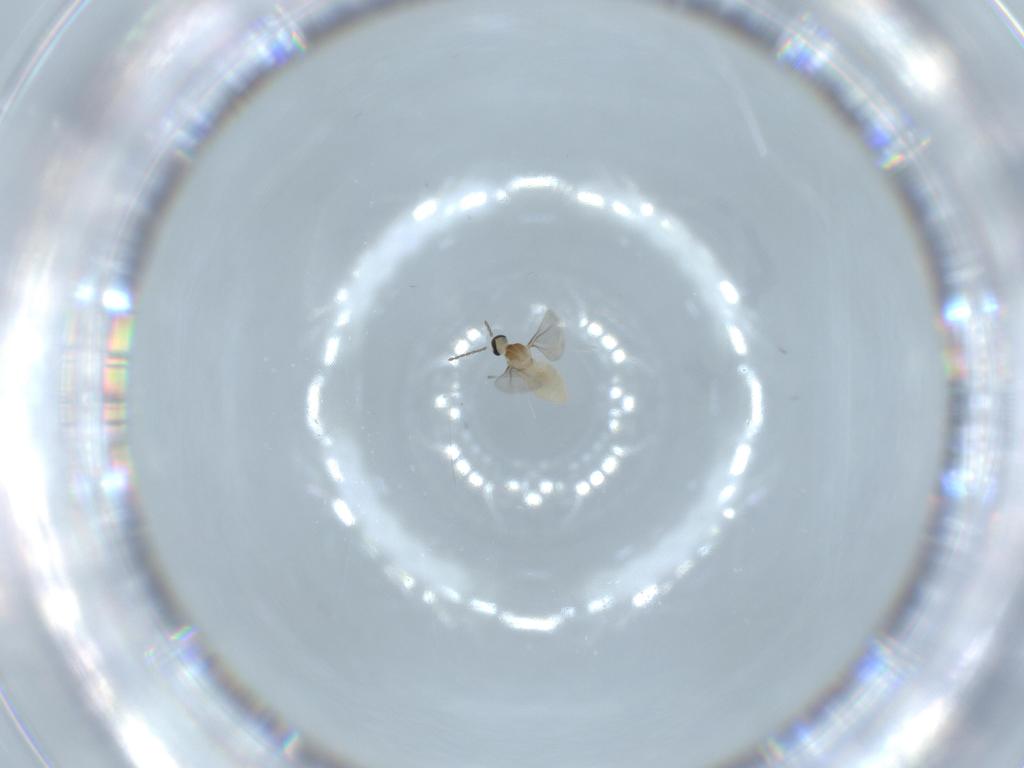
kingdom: Animalia
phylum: Arthropoda
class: Insecta
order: Diptera
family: Cecidomyiidae
